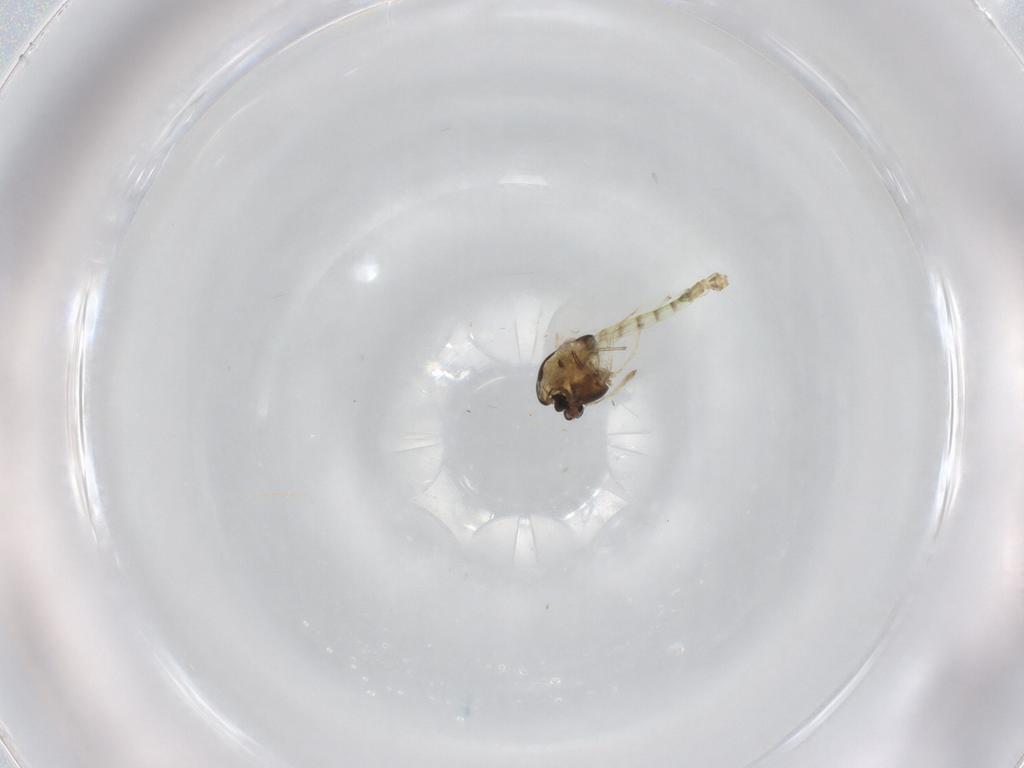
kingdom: Animalia
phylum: Arthropoda
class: Insecta
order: Diptera
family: Chironomidae
